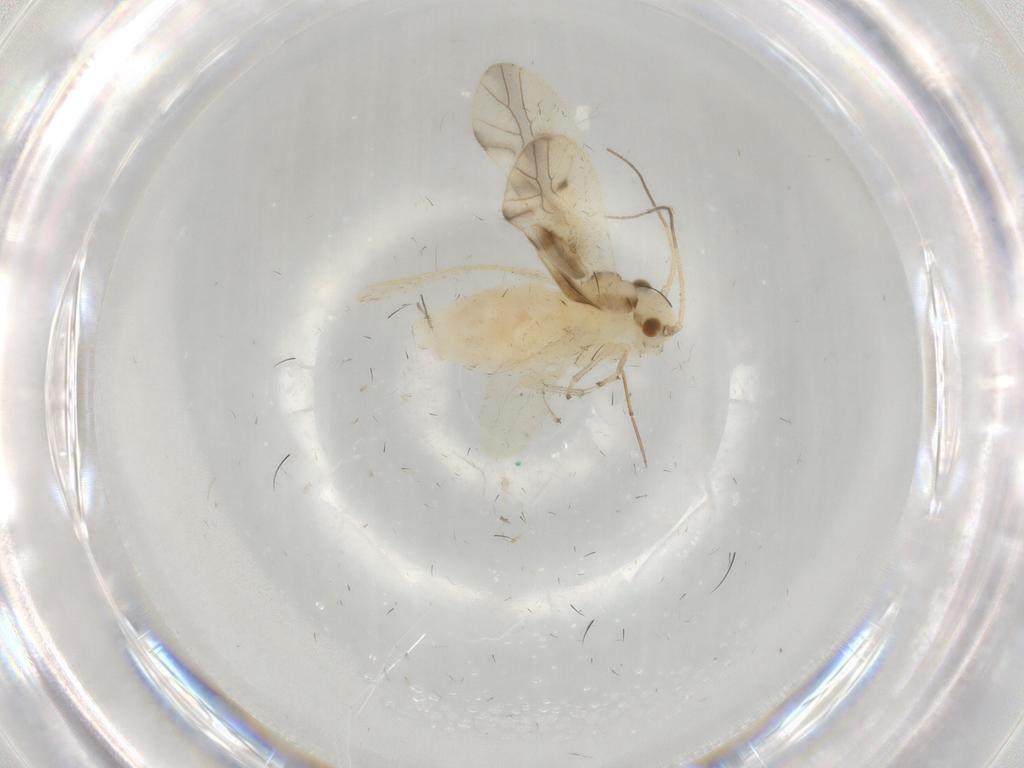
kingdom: Animalia
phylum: Arthropoda
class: Insecta
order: Psocodea
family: Caeciliusidae
